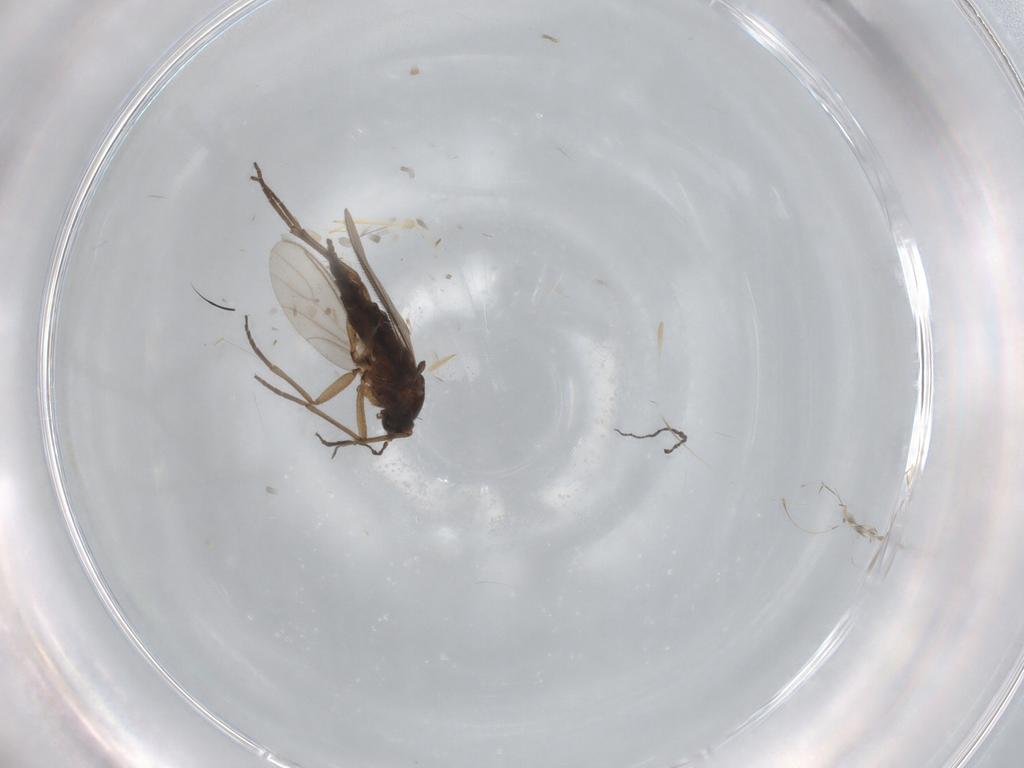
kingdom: Animalia
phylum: Arthropoda
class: Insecta
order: Diptera
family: Sciaridae
